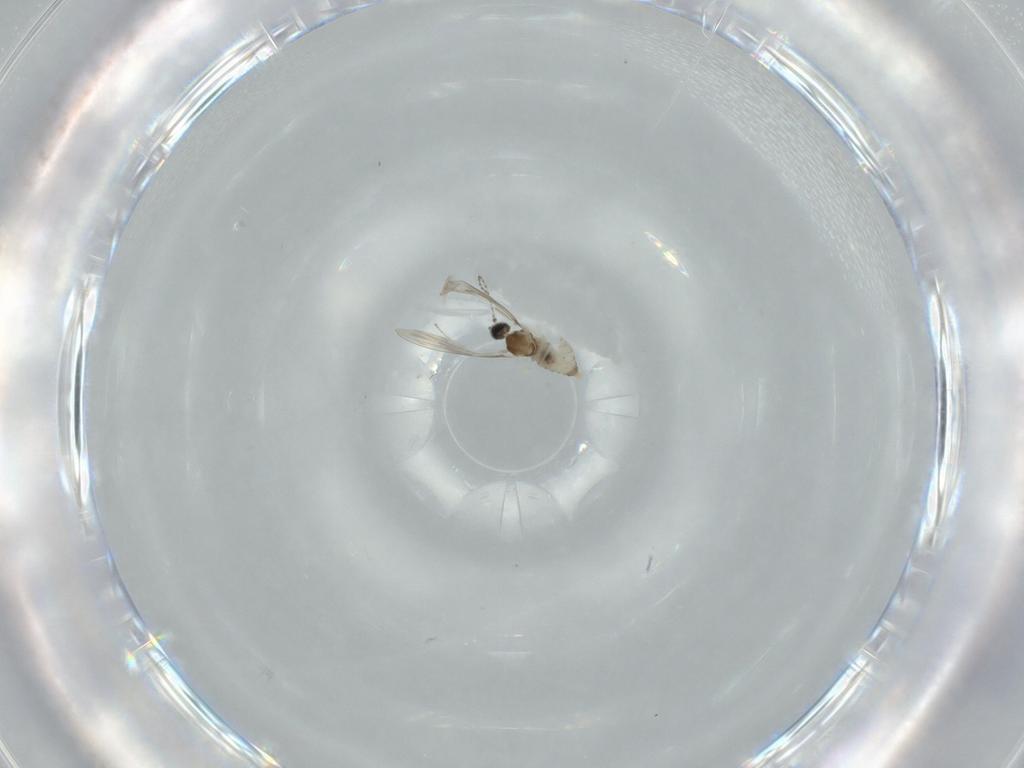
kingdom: Animalia
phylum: Arthropoda
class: Insecta
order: Diptera
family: Cecidomyiidae
